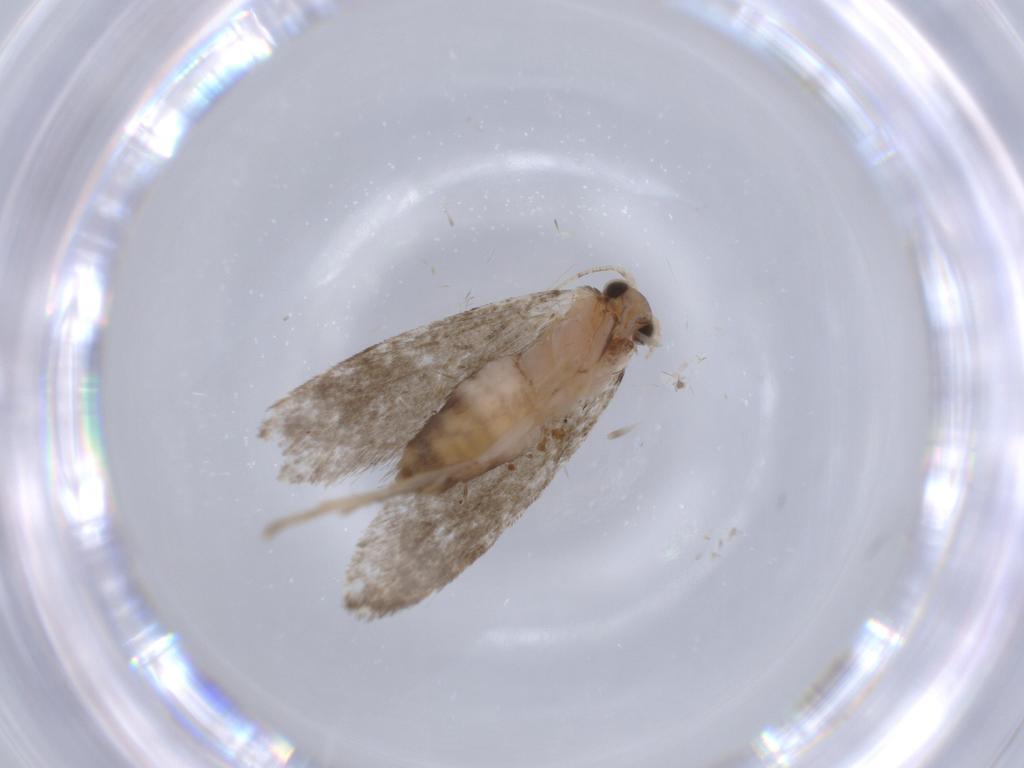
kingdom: Animalia
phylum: Arthropoda
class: Insecta
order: Lepidoptera
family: Tineidae
